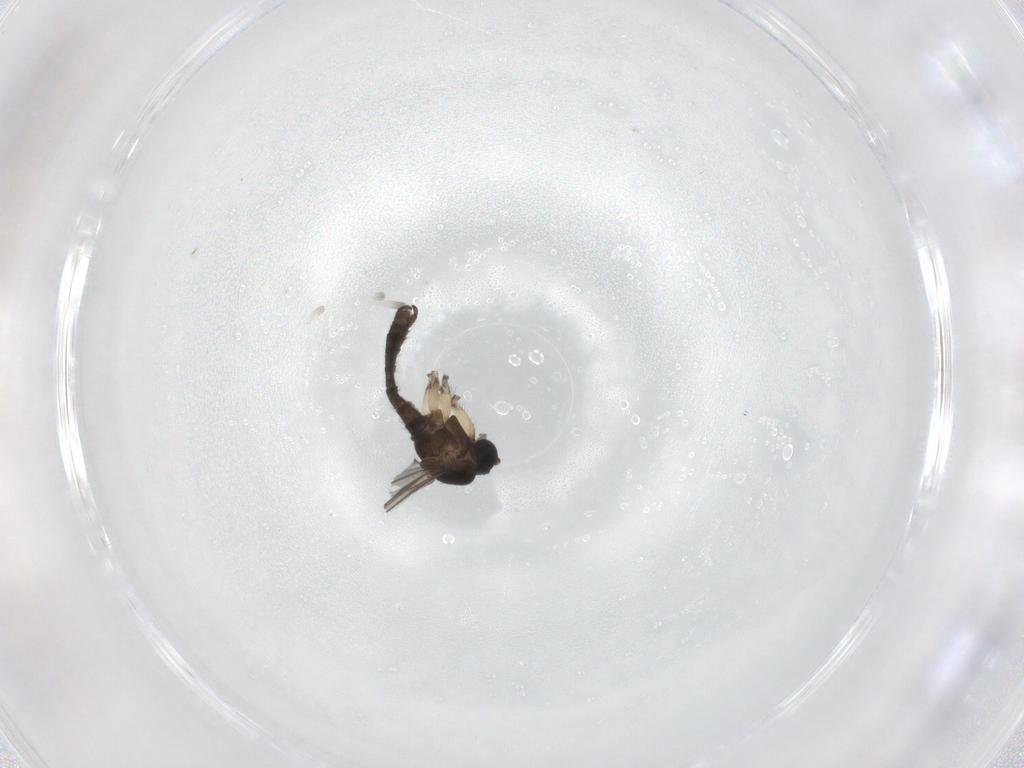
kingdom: Animalia
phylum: Arthropoda
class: Insecta
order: Diptera
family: Sciaridae
